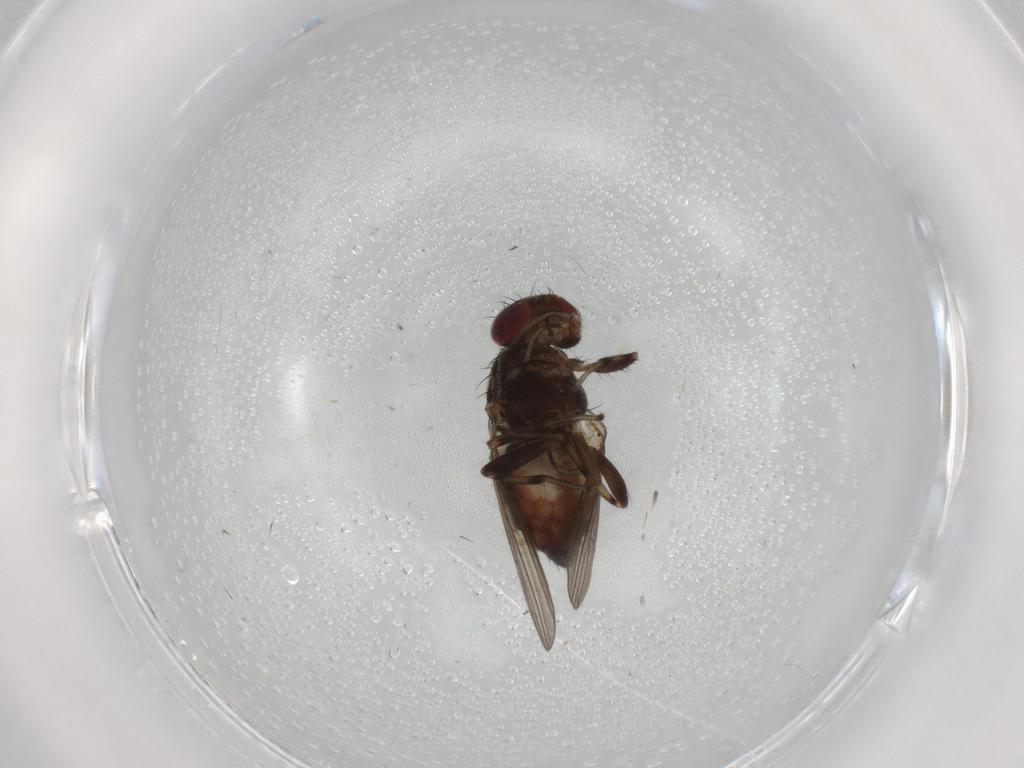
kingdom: Animalia
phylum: Arthropoda
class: Insecta
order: Diptera
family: Heleomyzidae
